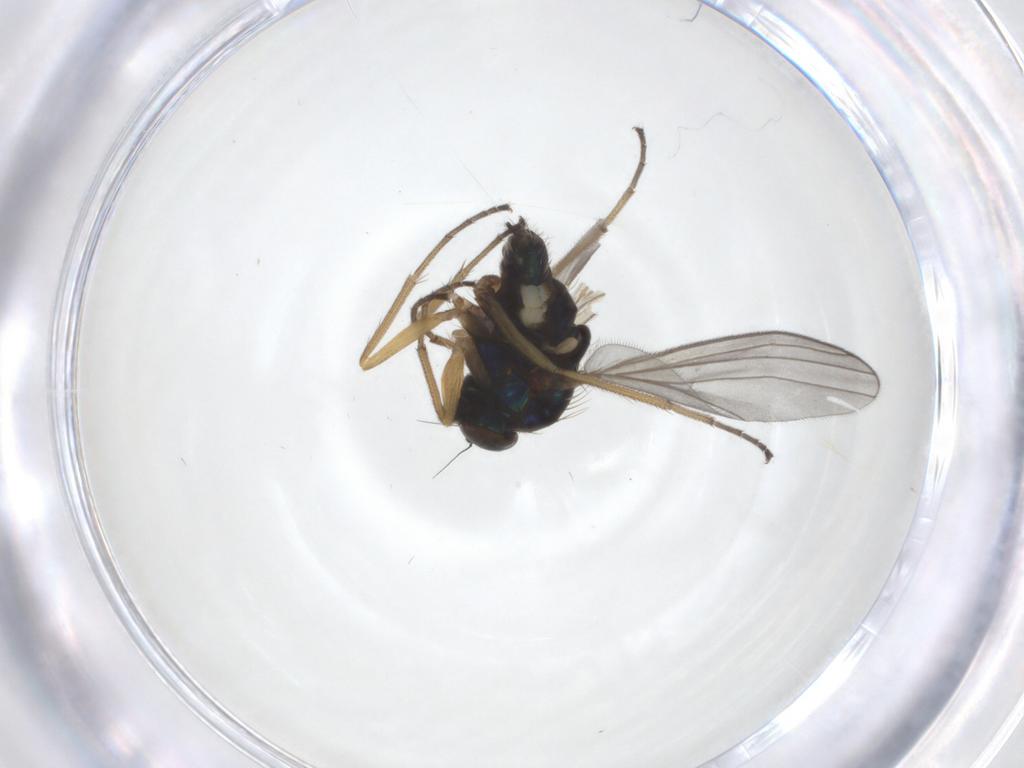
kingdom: Animalia
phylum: Arthropoda
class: Insecta
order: Diptera
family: Dolichopodidae
